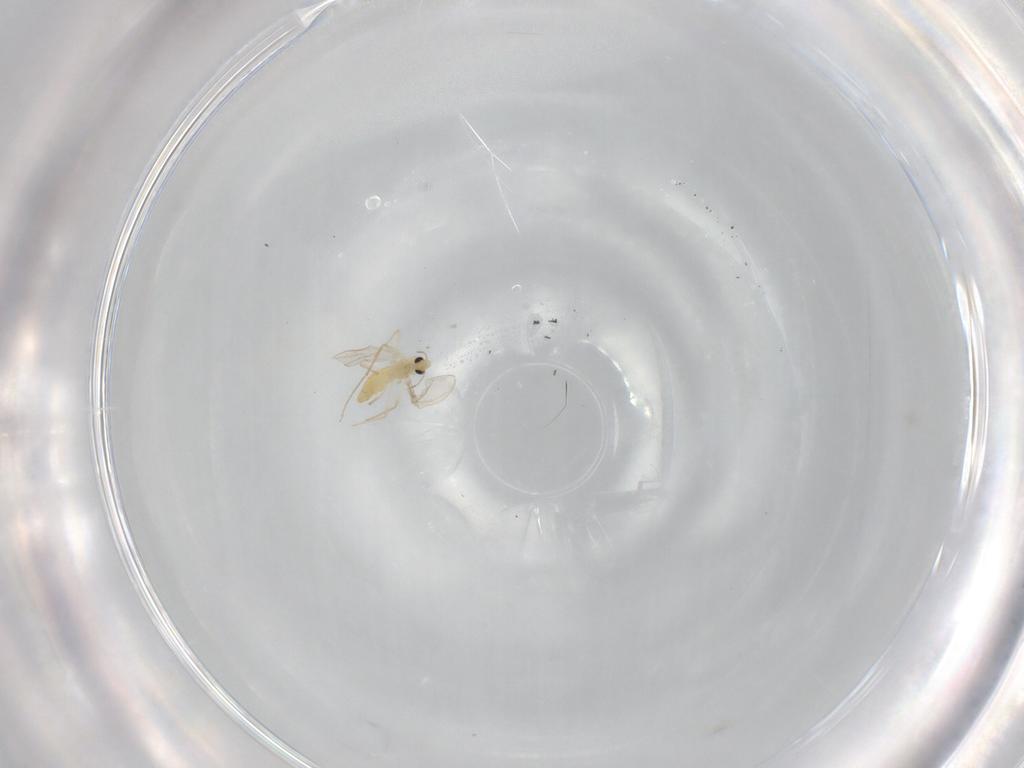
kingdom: Animalia
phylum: Arthropoda
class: Insecta
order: Diptera
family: Chironomidae
